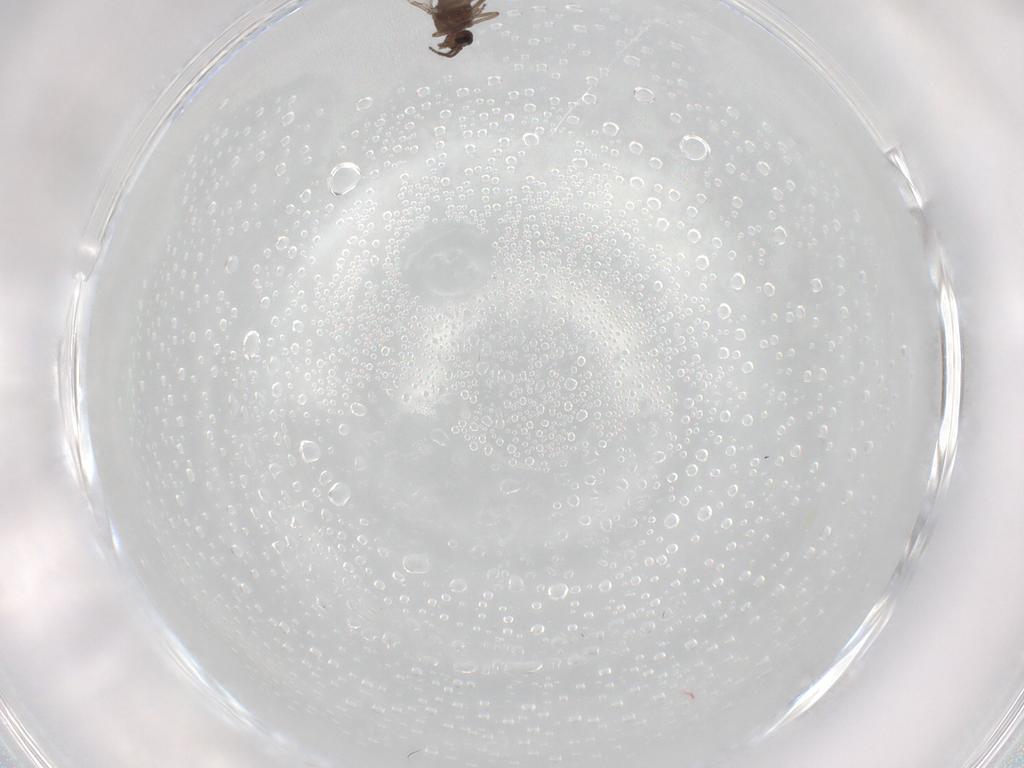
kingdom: Animalia
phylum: Arthropoda
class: Insecta
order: Diptera
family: Ceratopogonidae
